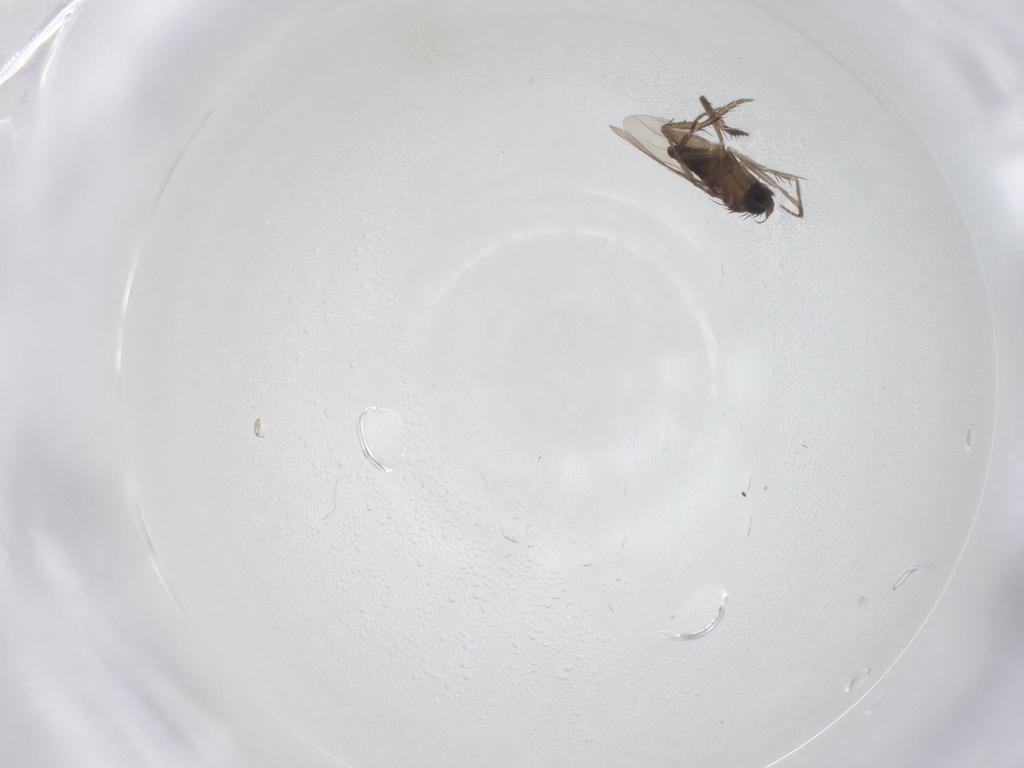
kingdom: Animalia
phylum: Arthropoda
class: Insecta
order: Diptera
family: Phoridae
